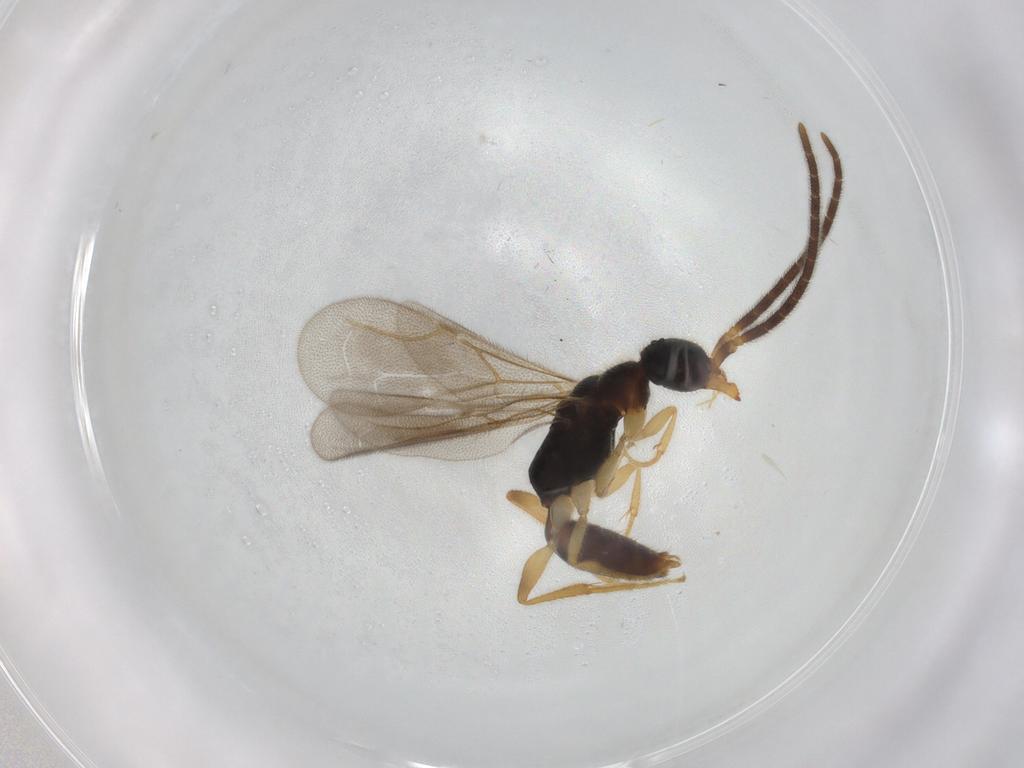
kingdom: Animalia
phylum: Arthropoda
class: Insecta
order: Hymenoptera
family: Bethylidae
